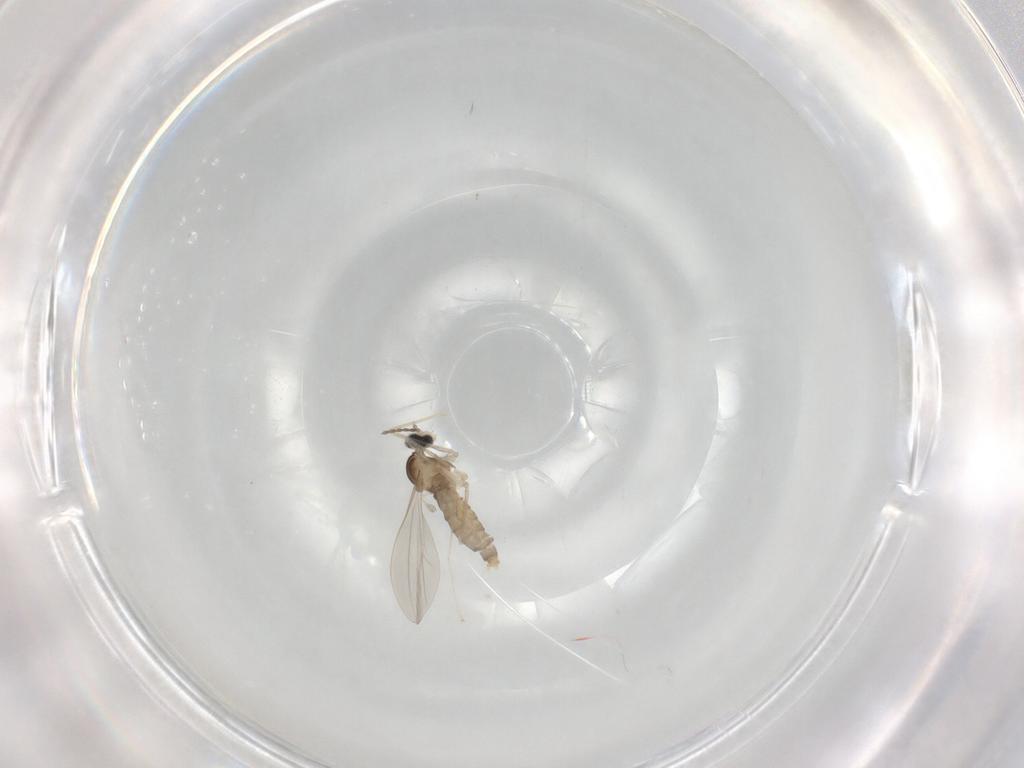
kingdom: Animalia
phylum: Arthropoda
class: Insecta
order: Diptera
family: Cecidomyiidae
